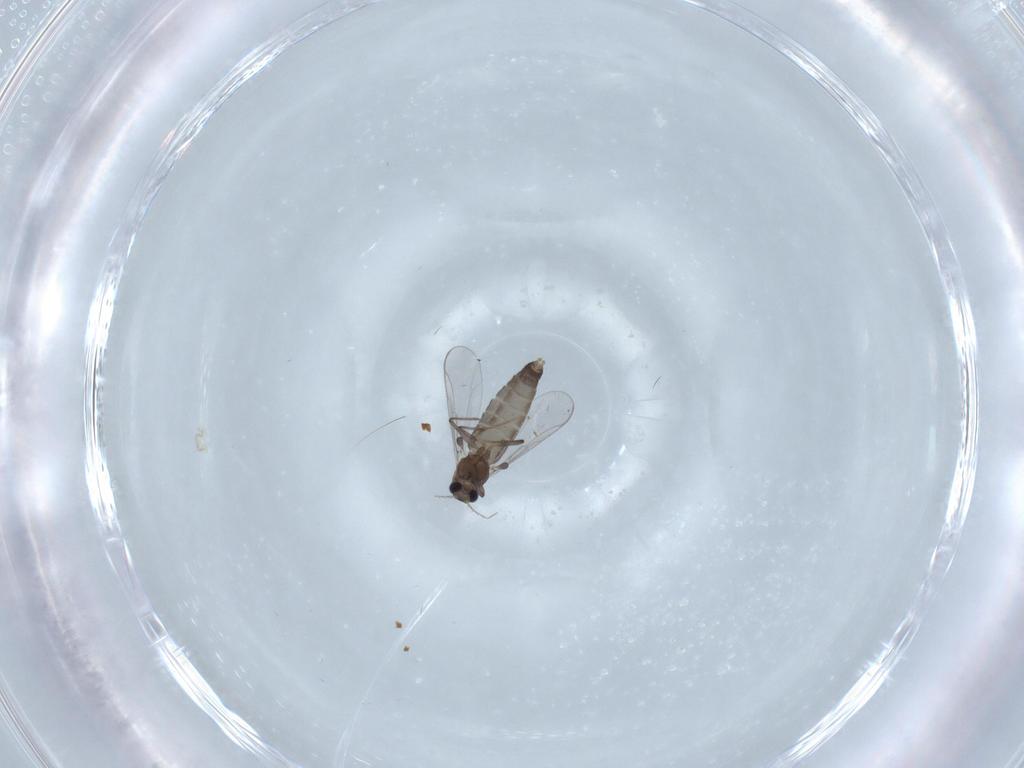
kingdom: Animalia
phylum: Arthropoda
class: Insecta
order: Diptera
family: Chironomidae
